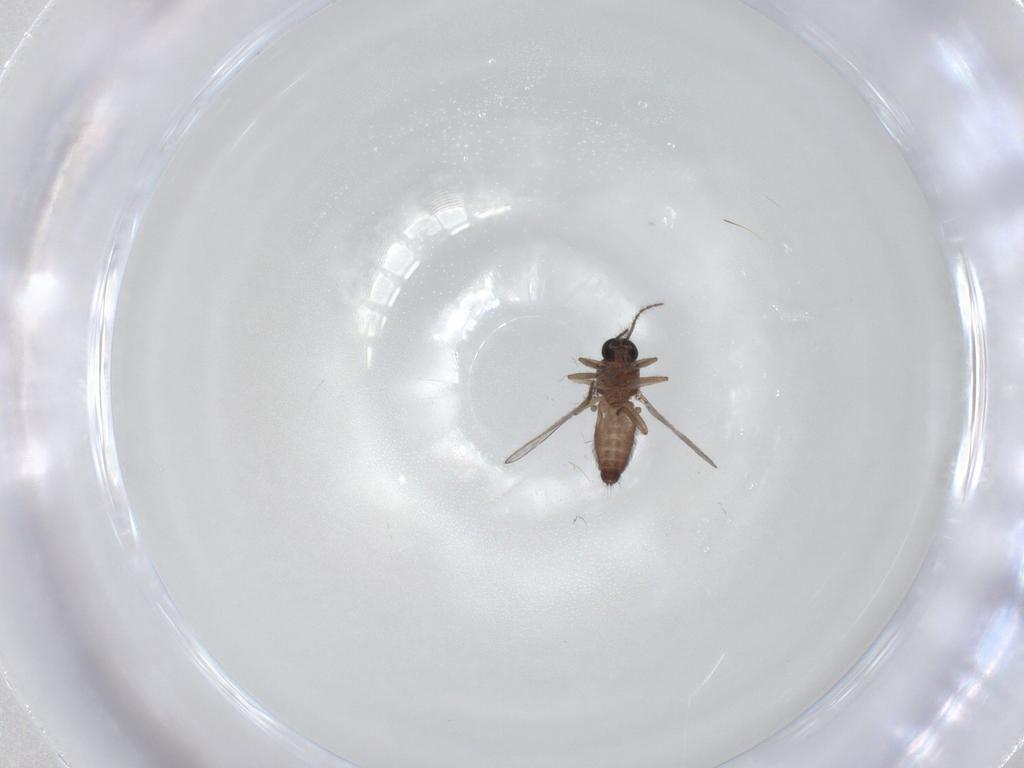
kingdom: Animalia
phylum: Arthropoda
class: Insecta
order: Diptera
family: Ceratopogonidae
